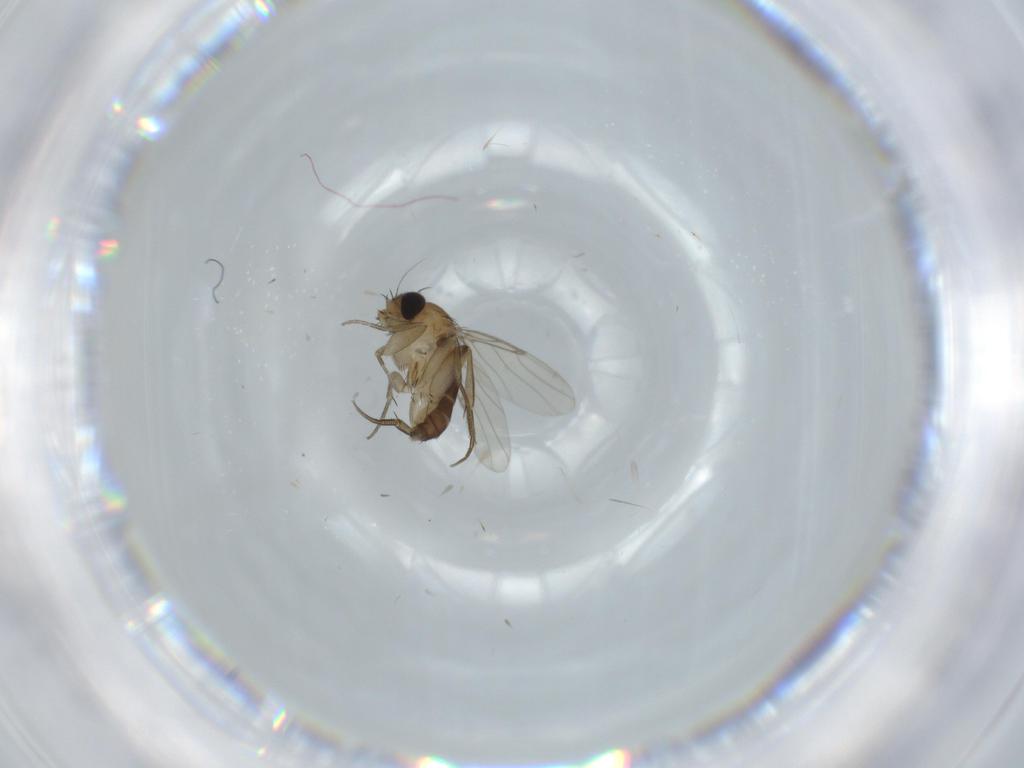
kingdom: Animalia
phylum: Arthropoda
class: Insecta
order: Diptera
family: Phoridae
